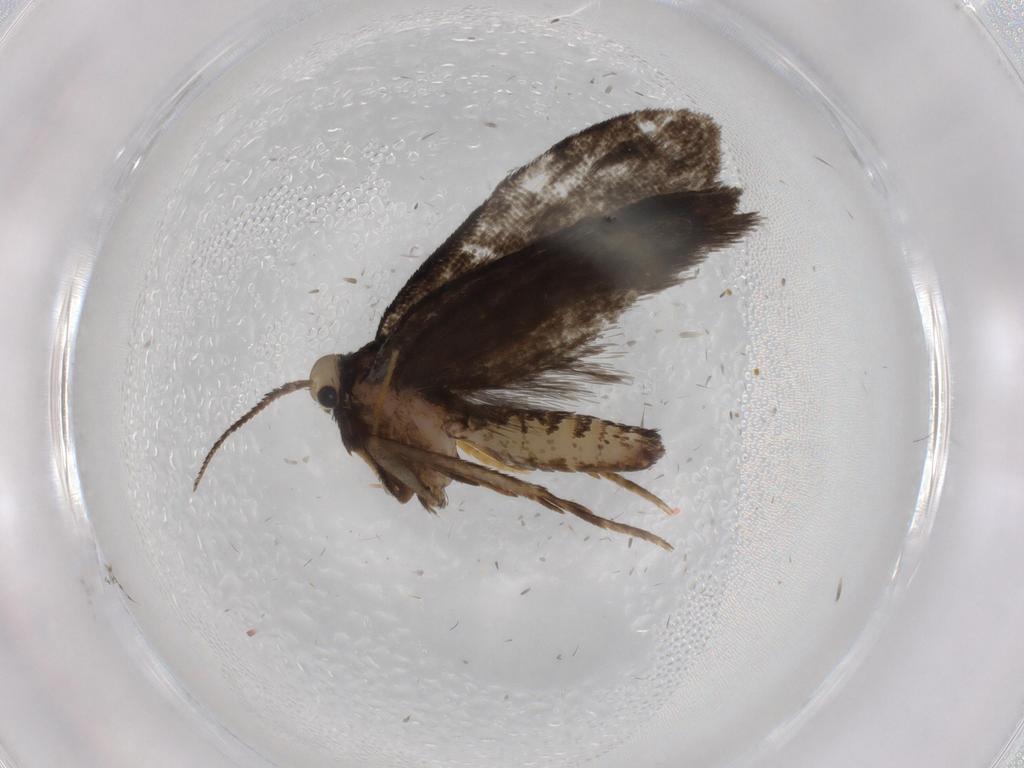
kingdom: Animalia
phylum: Arthropoda
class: Insecta
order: Lepidoptera
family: Psychidae
